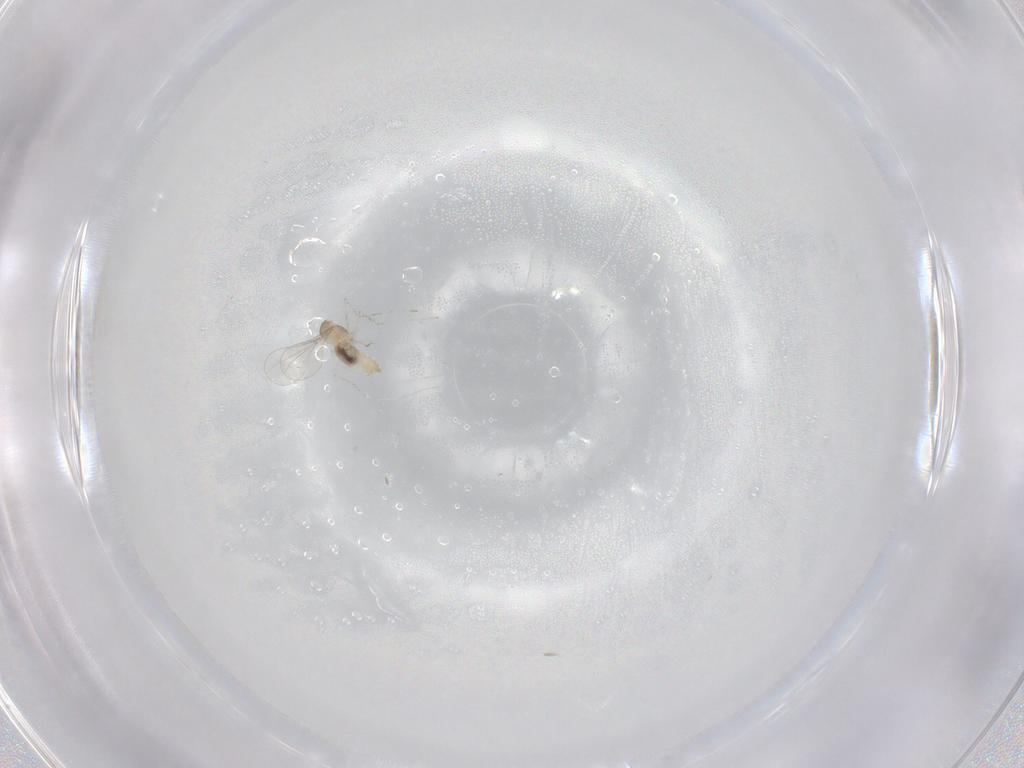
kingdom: Animalia
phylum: Arthropoda
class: Insecta
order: Diptera
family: Cecidomyiidae
